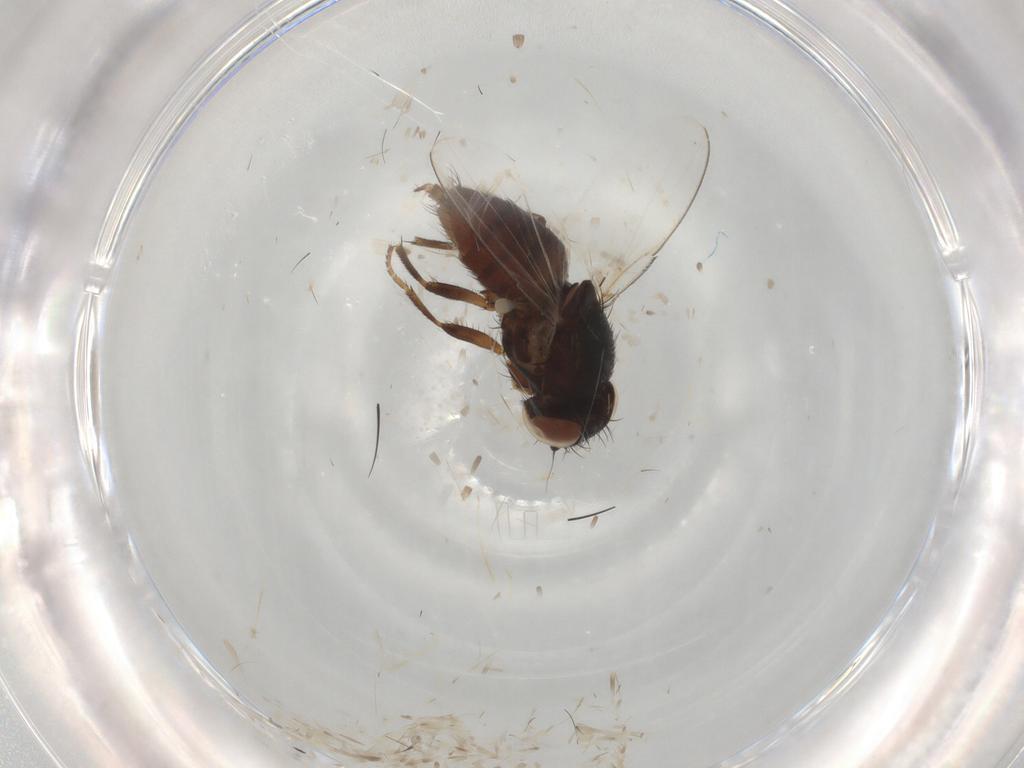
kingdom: Animalia
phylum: Arthropoda
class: Insecta
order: Diptera
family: Milichiidae
